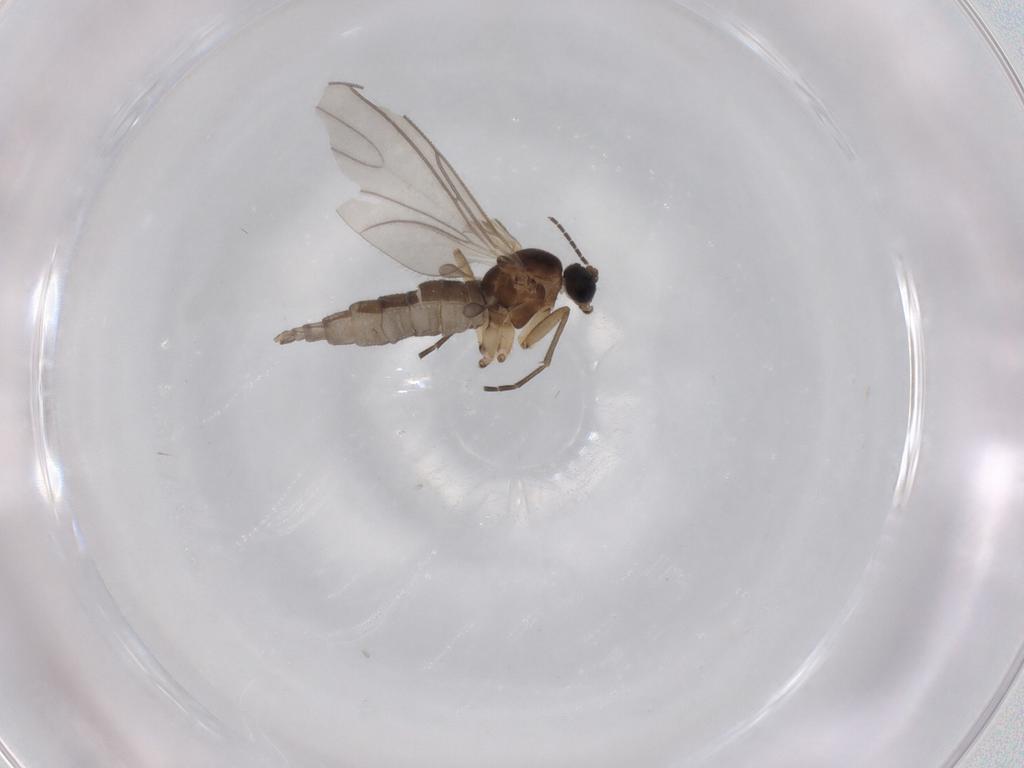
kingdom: Animalia
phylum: Arthropoda
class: Insecta
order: Diptera
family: Sciaridae
